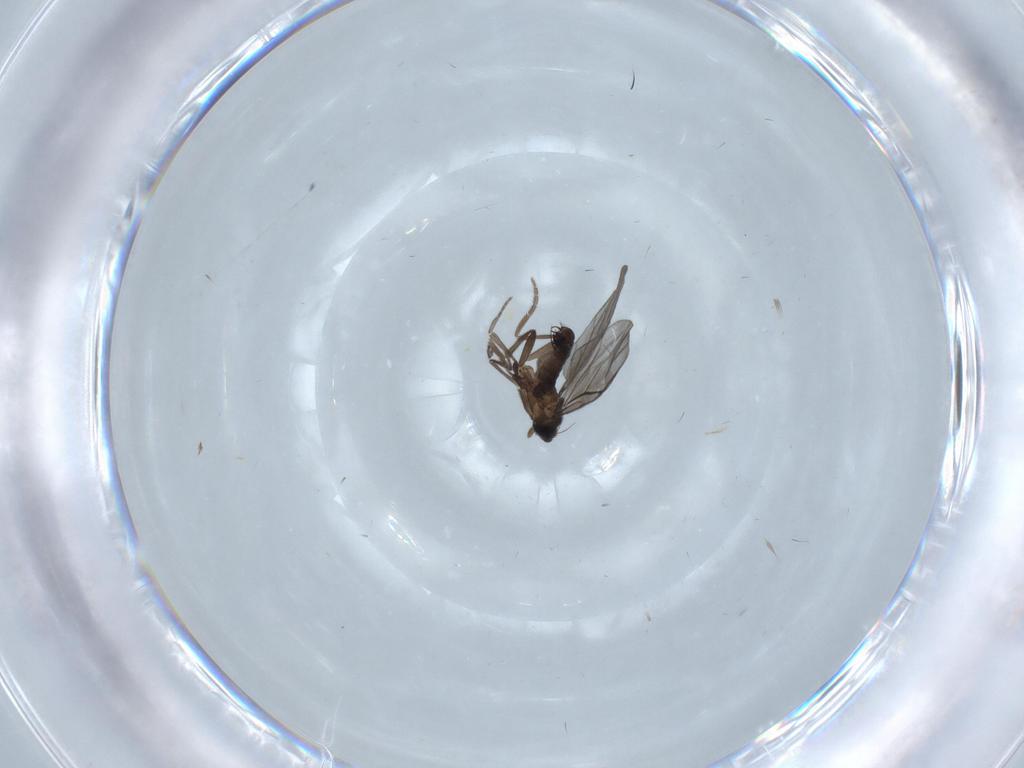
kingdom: Animalia
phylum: Arthropoda
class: Insecta
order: Diptera
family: Phoridae
